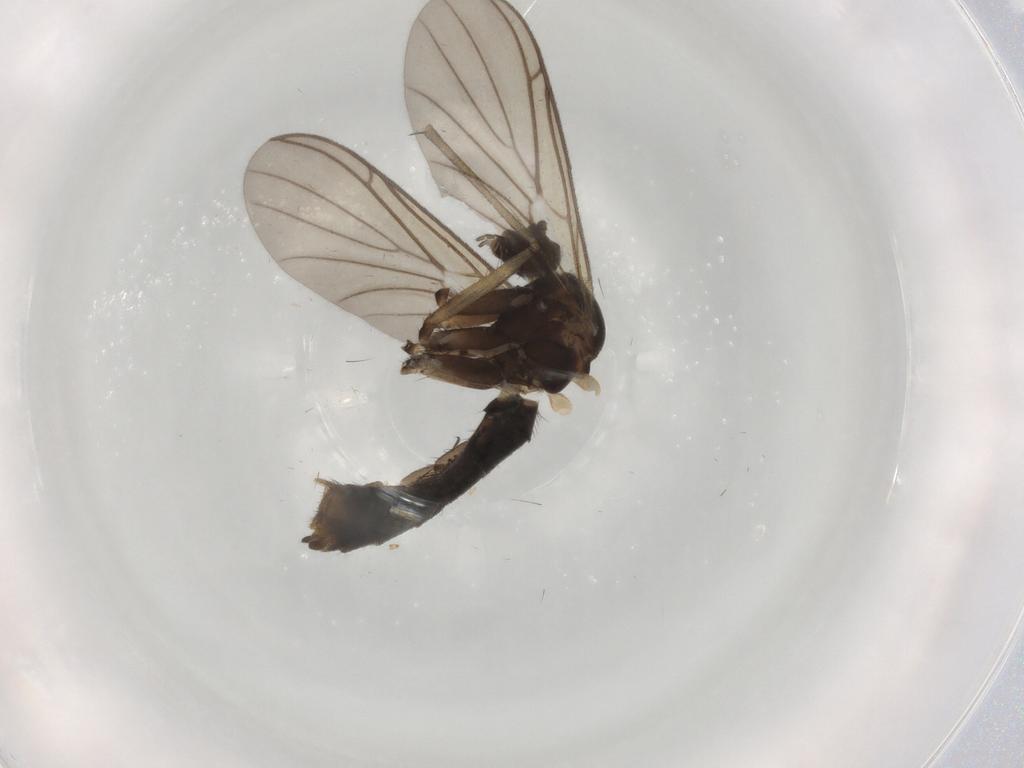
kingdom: Animalia
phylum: Arthropoda
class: Insecta
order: Diptera
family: Keroplatidae
